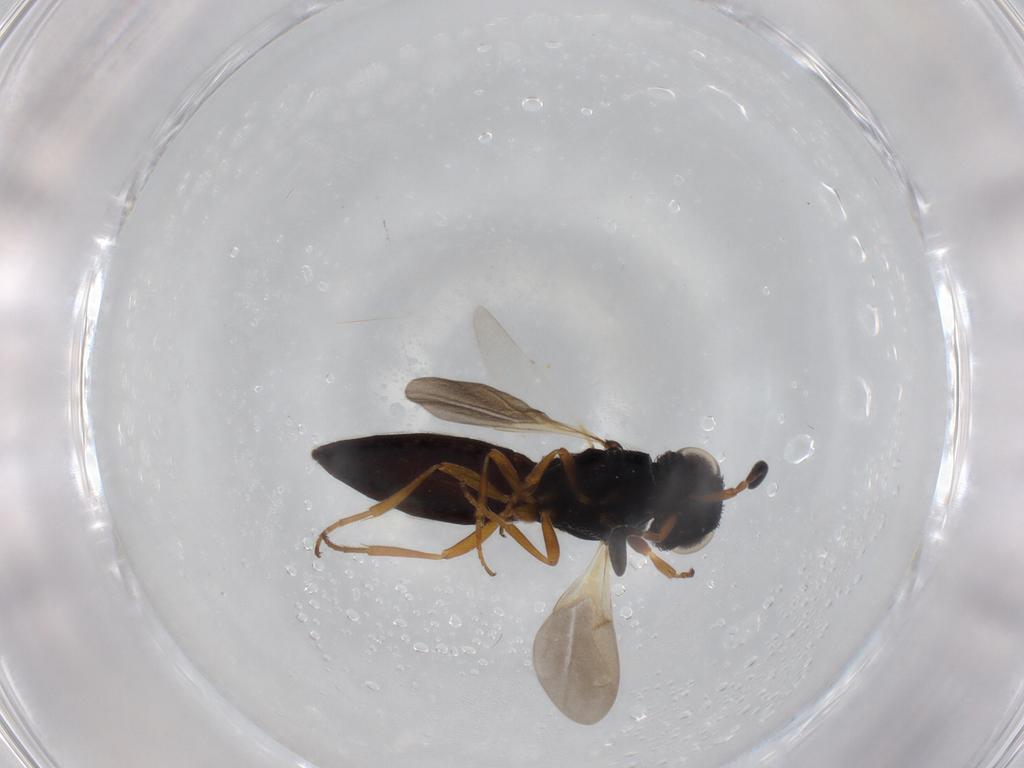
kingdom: Animalia
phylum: Arthropoda
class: Insecta
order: Hymenoptera
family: Scelionidae
